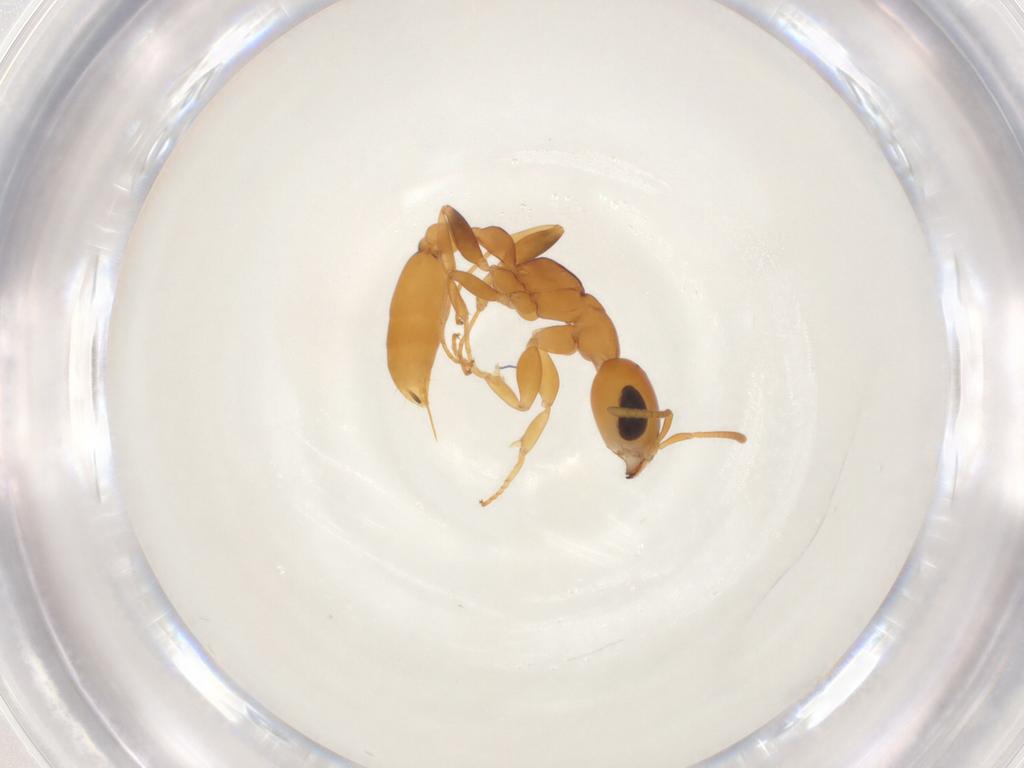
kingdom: Animalia
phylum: Arthropoda
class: Insecta
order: Hymenoptera
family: Formicidae
